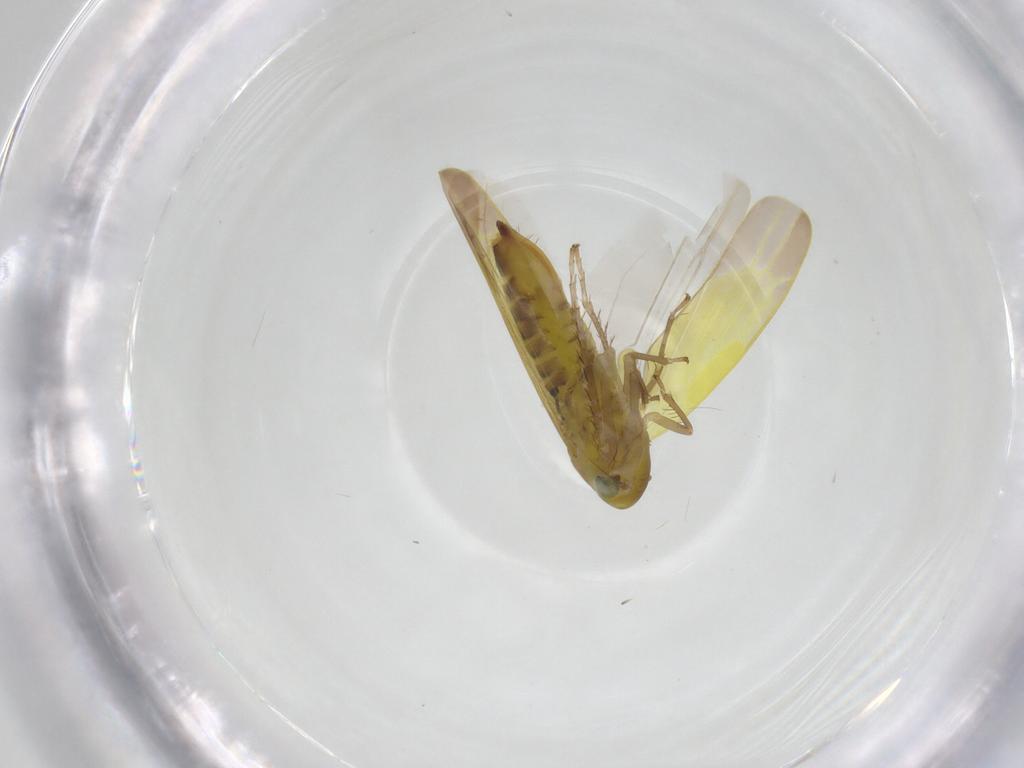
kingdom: Animalia
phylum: Arthropoda
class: Insecta
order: Hemiptera
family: Cicadellidae
